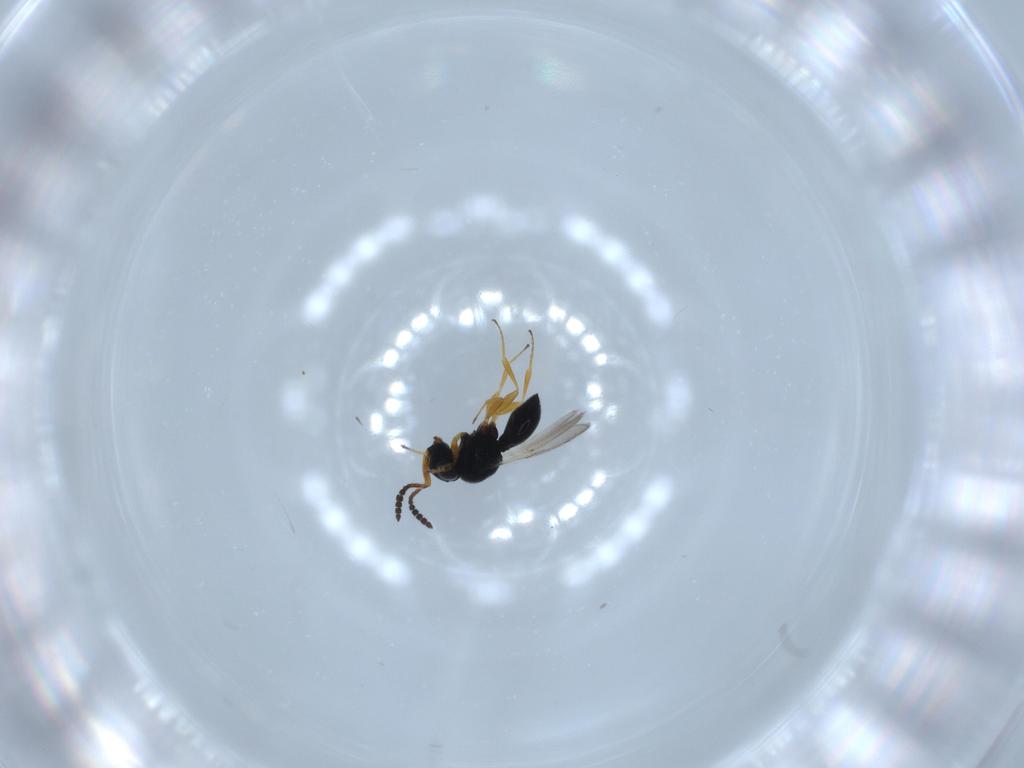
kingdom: Animalia
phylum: Arthropoda
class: Insecta
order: Hymenoptera
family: Scelionidae
